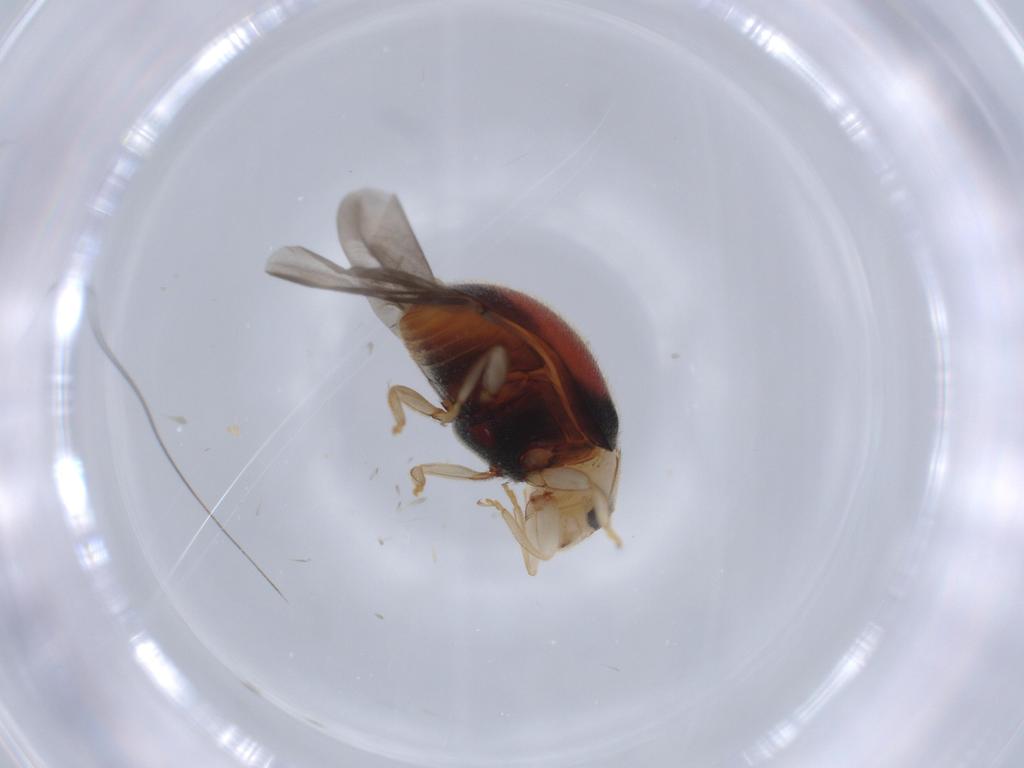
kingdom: Animalia
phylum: Arthropoda
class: Insecta
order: Coleoptera
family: Coccinellidae
